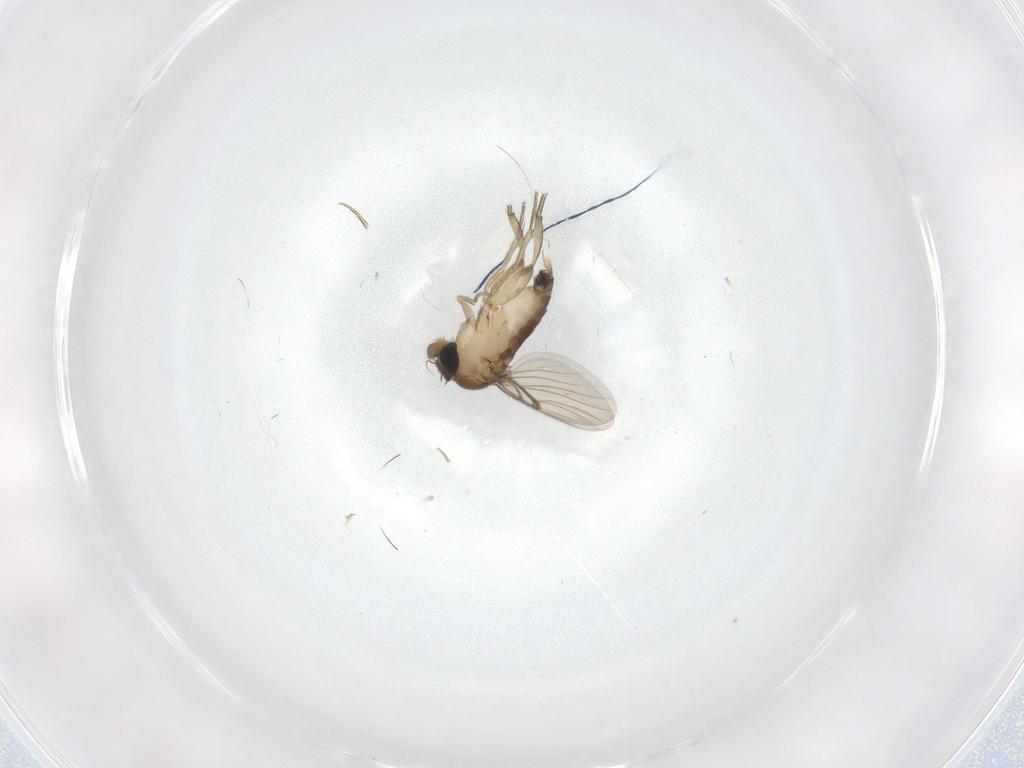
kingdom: Animalia
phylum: Arthropoda
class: Insecta
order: Diptera
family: Phoridae
